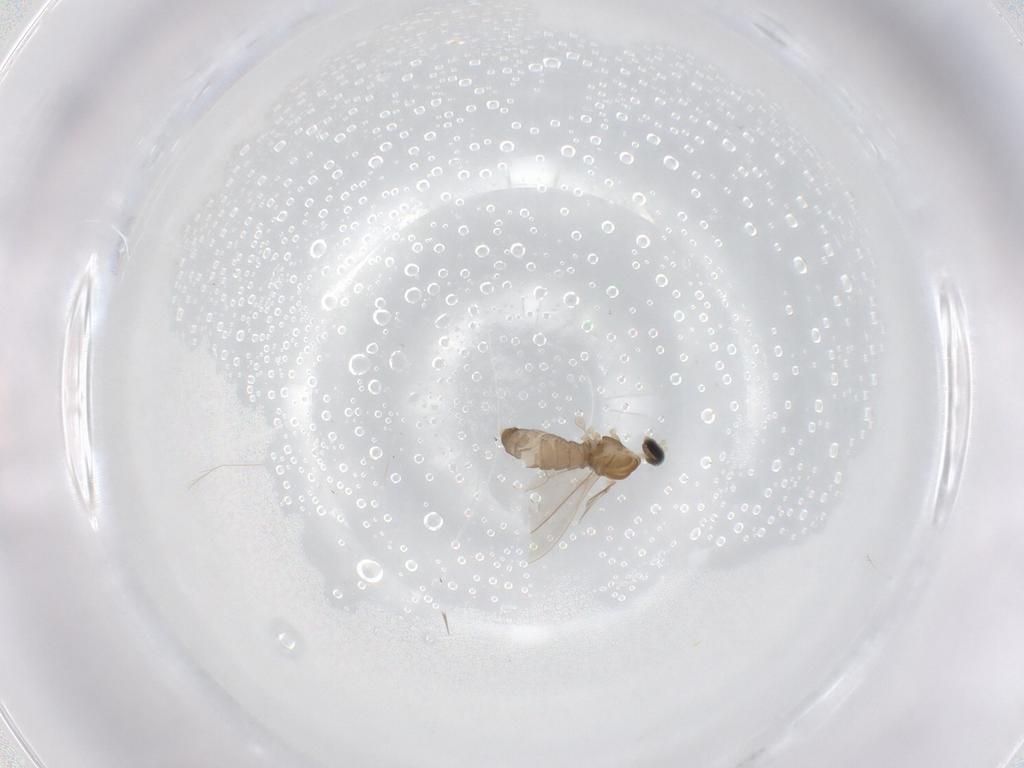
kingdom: Animalia
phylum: Arthropoda
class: Insecta
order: Diptera
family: Cecidomyiidae
